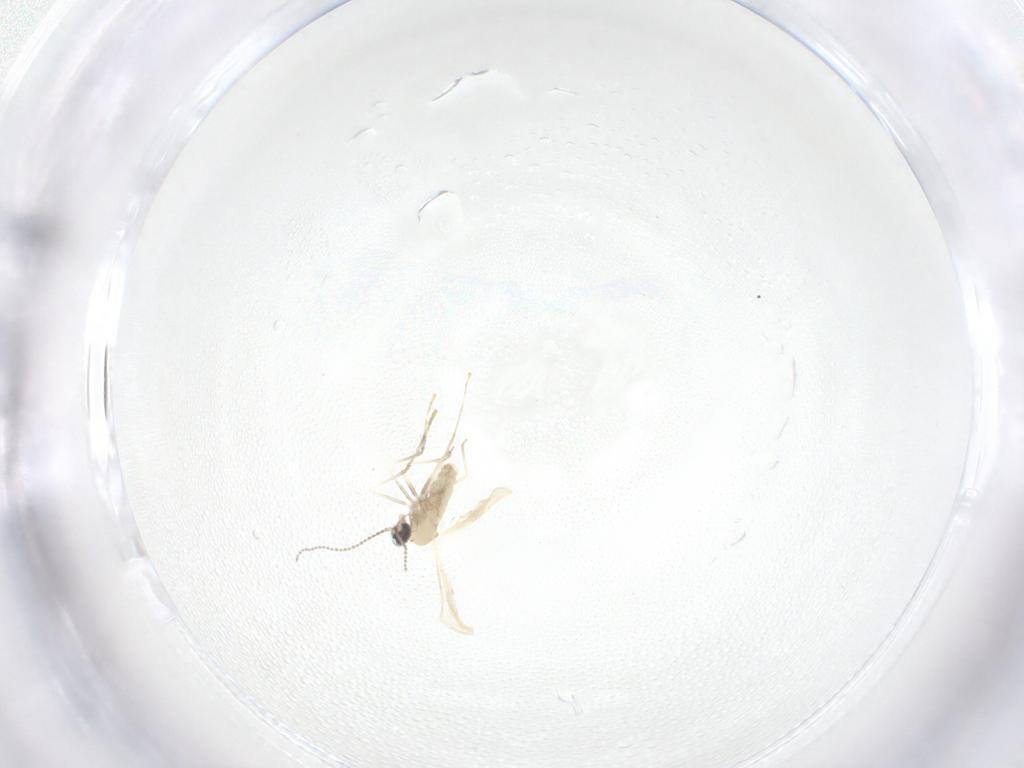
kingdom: Animalia
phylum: Arthropoda
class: Insecta
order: Diptera
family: Cecidomyiidae
